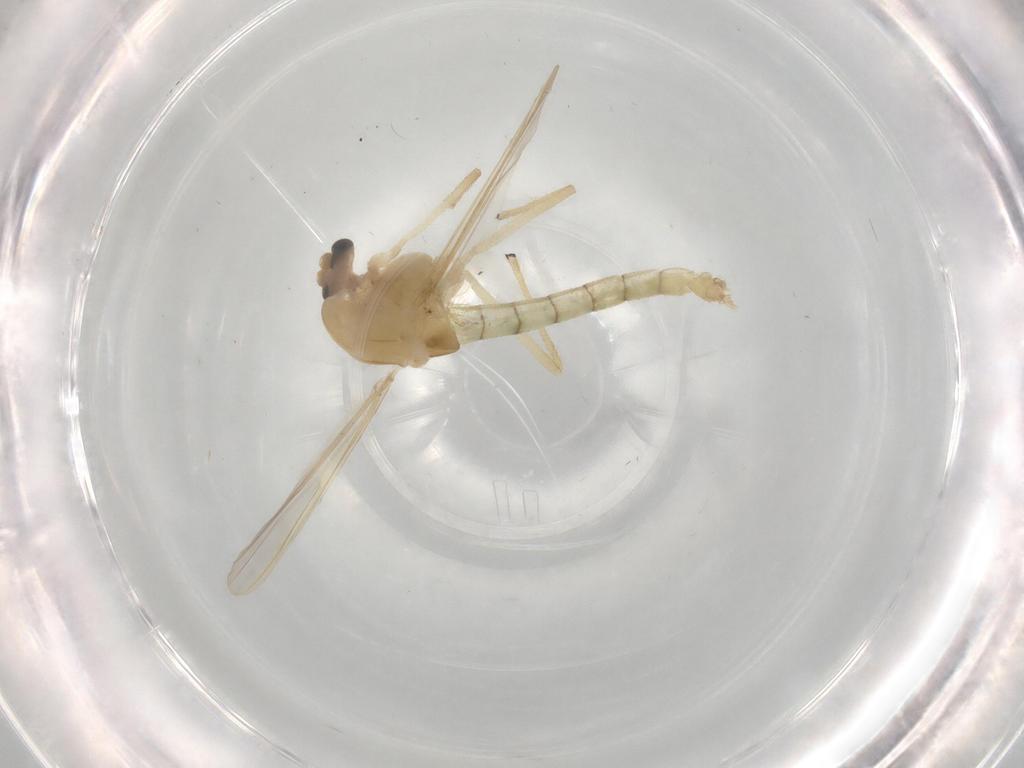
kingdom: Animalia
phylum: Arthropoda
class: Insecta
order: Diptera
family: Chironomidae
